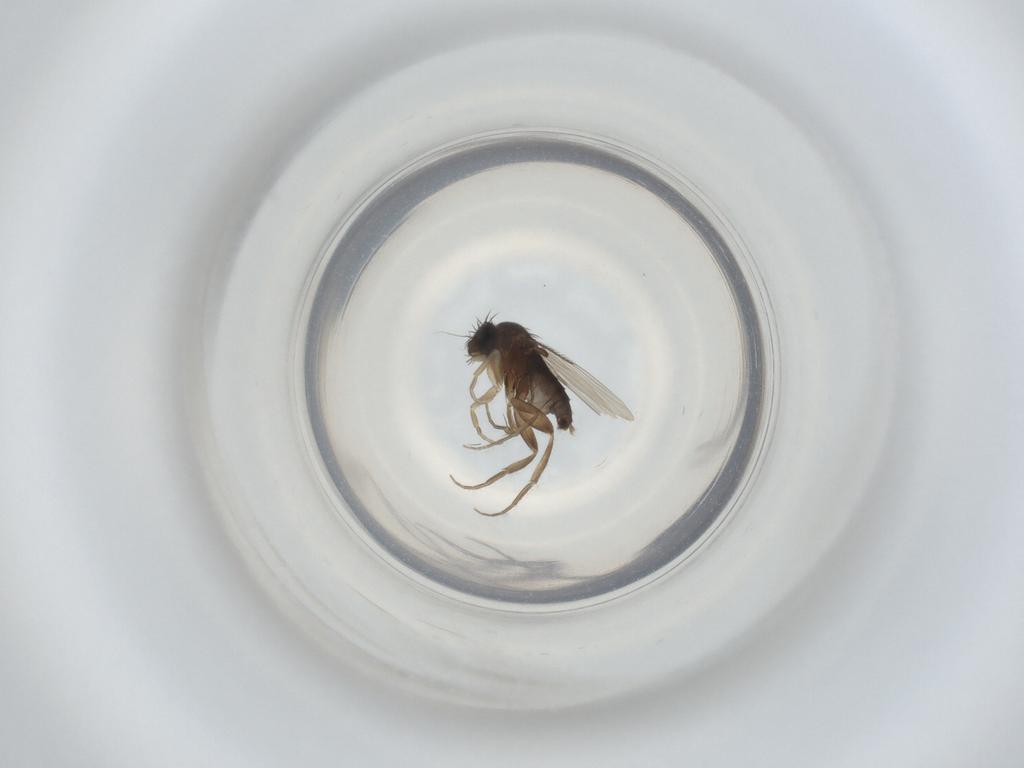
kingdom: Animalia
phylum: Arthropoda
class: Insecta
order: Diptera
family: Phoridae
